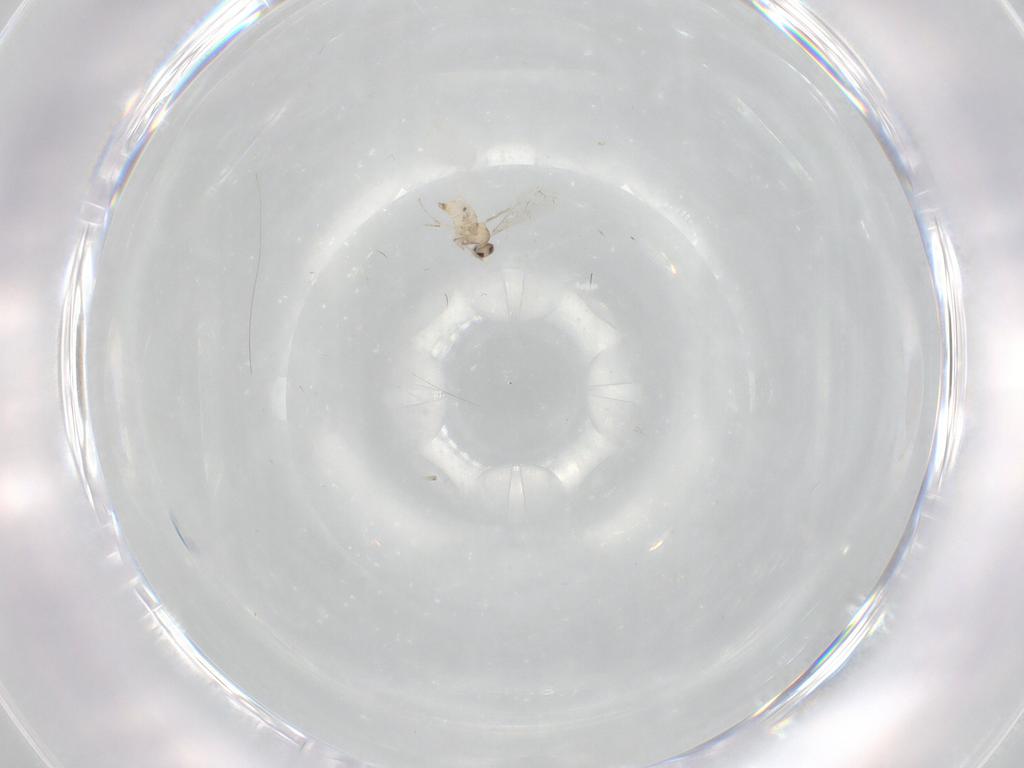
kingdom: Animalia
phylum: Arthropoda
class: Insecta
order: Diptera
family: Cecidomyiidae
